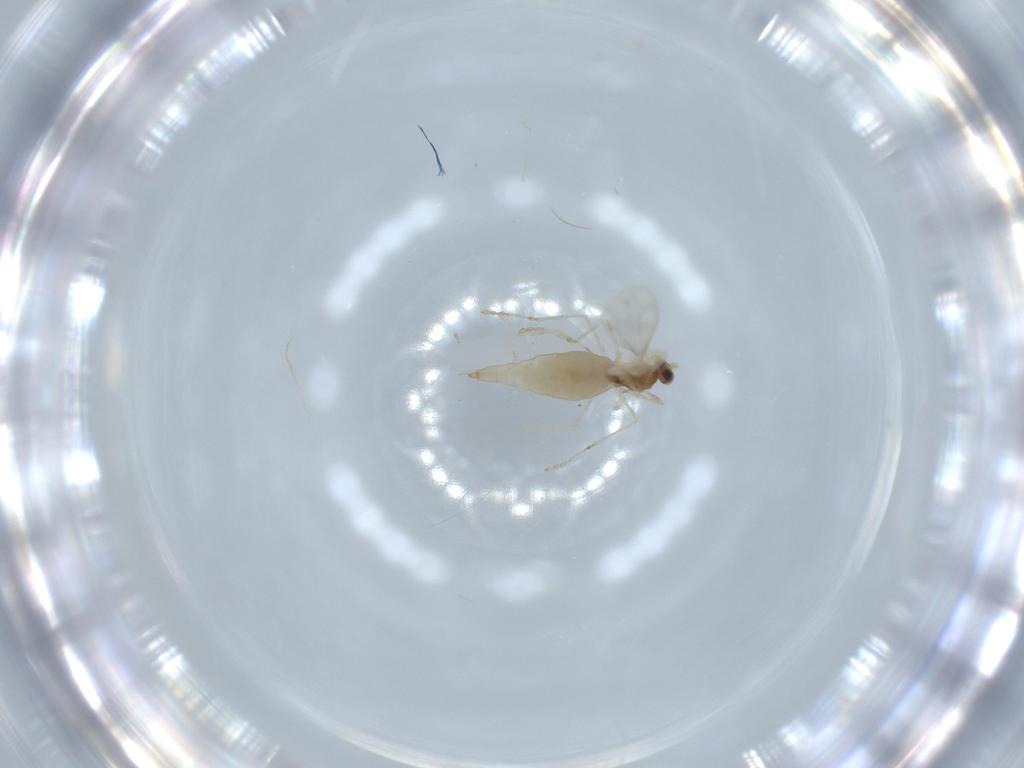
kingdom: Animalia
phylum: Arthropoda
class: Insecta
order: Diptera
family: Cecidomyiidae
